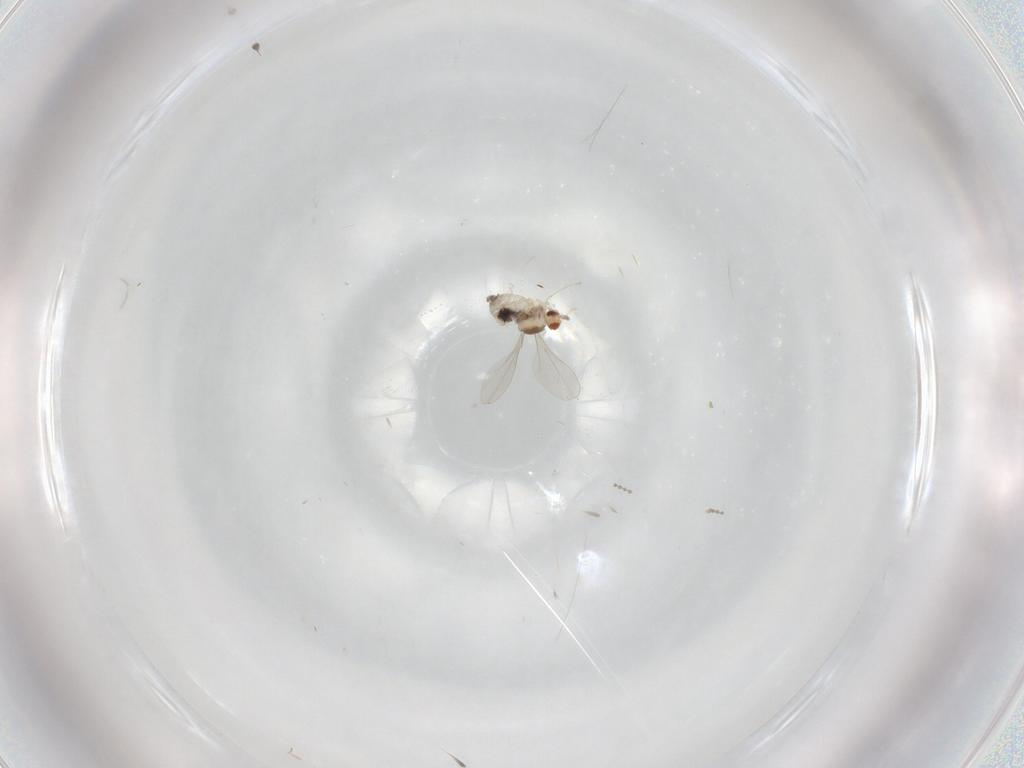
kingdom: Animalia
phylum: Arthropoda
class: Insecta
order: Diptera
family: Cecidomyiidae
